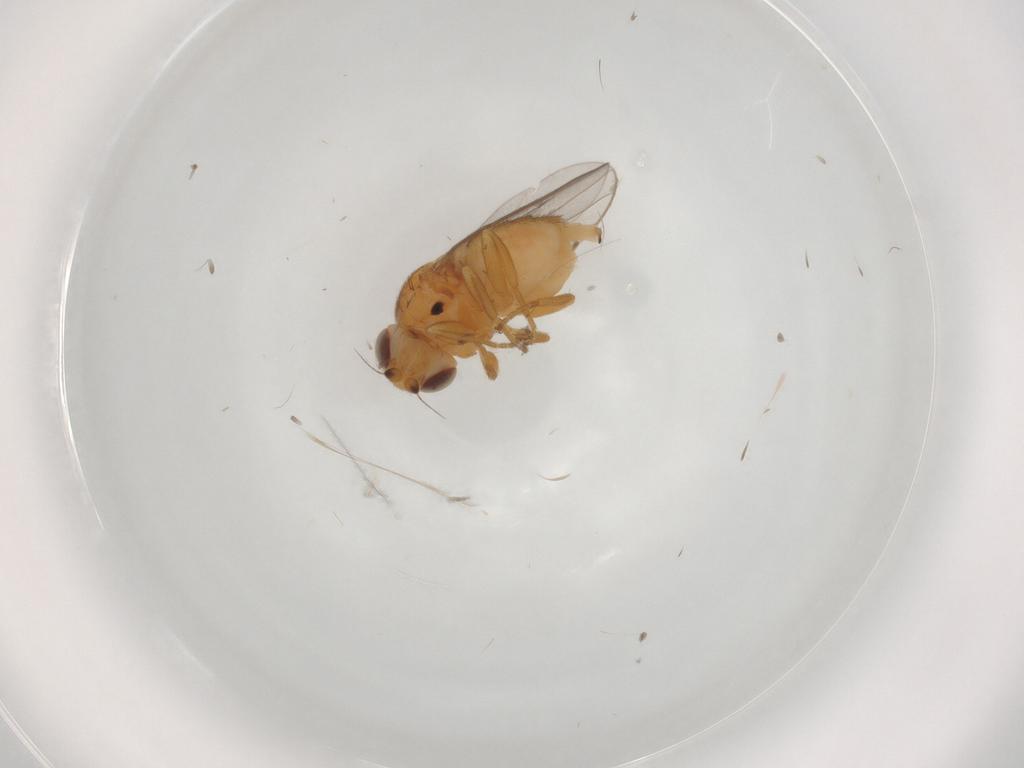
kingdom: Animalia
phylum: Arthropoda
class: Insecta
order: Diptera
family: Chloropidae
